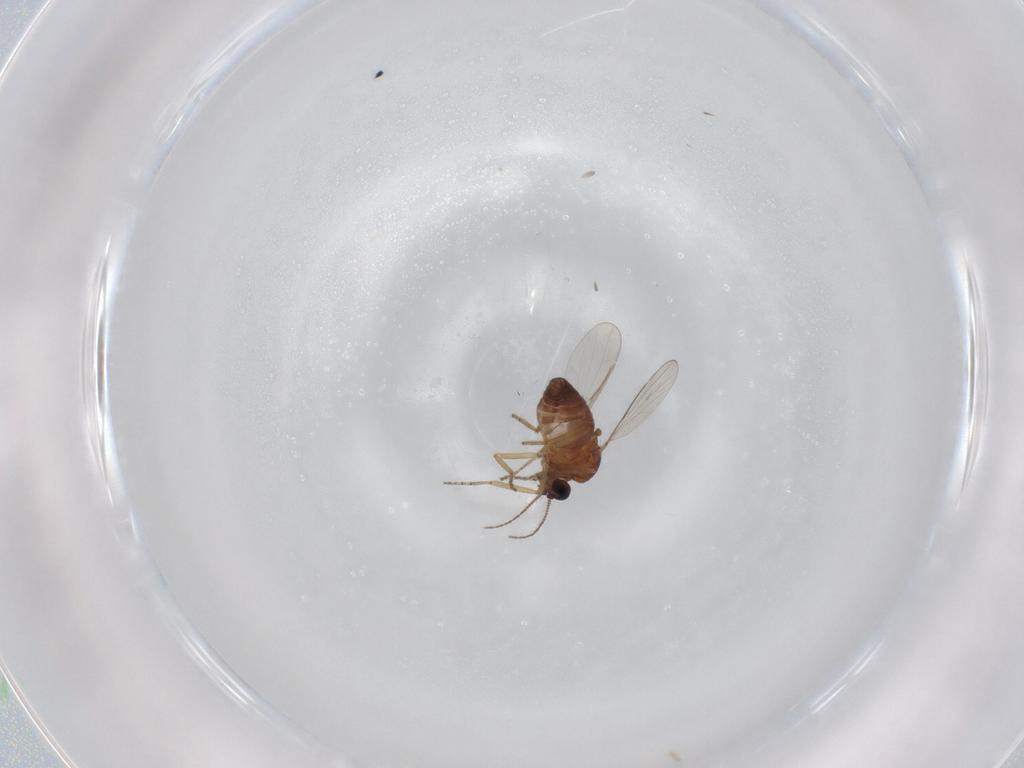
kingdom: Animalia
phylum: Arthropoda
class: Insecta
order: Diptera
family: Ceratopogonidae
